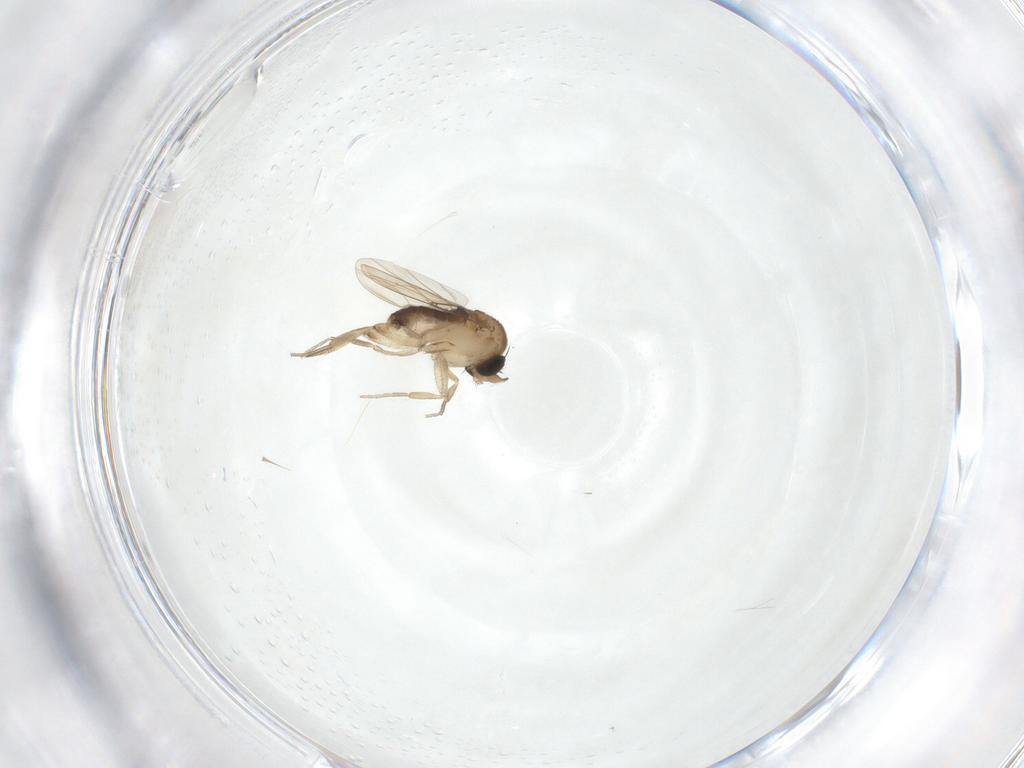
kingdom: Animalia
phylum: Arthropoda
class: Insecta
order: Diptera
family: Phoridae
